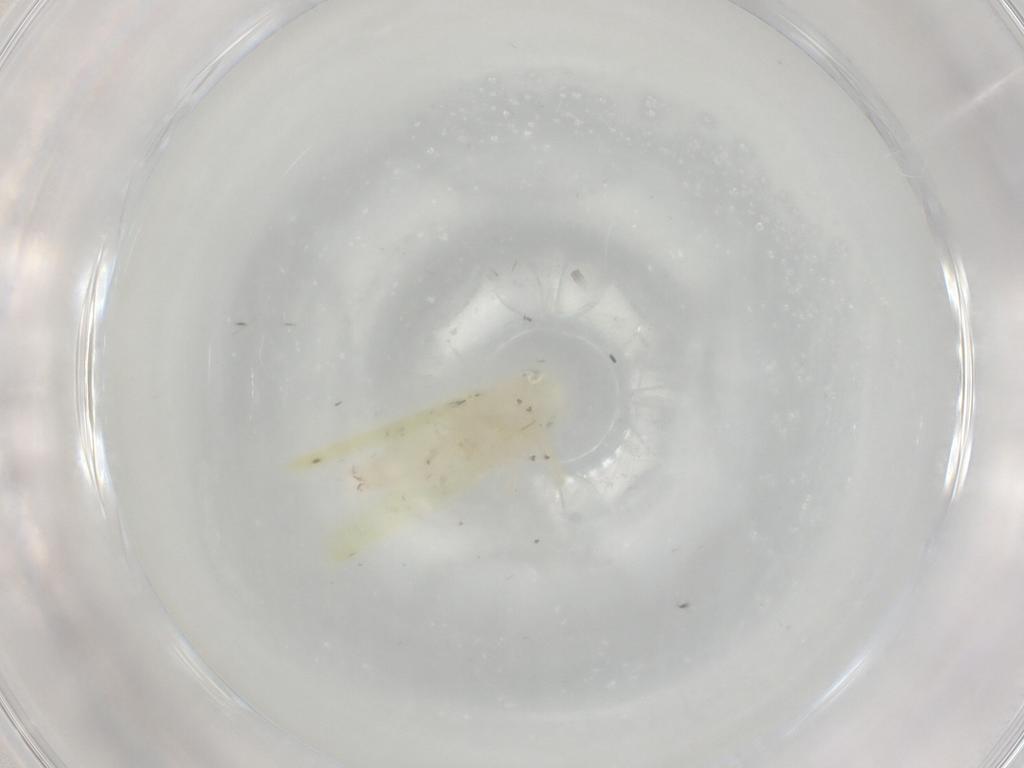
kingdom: Animalia
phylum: Arthropoda
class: Insecta
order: Hemiptera
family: Cicadellidae
